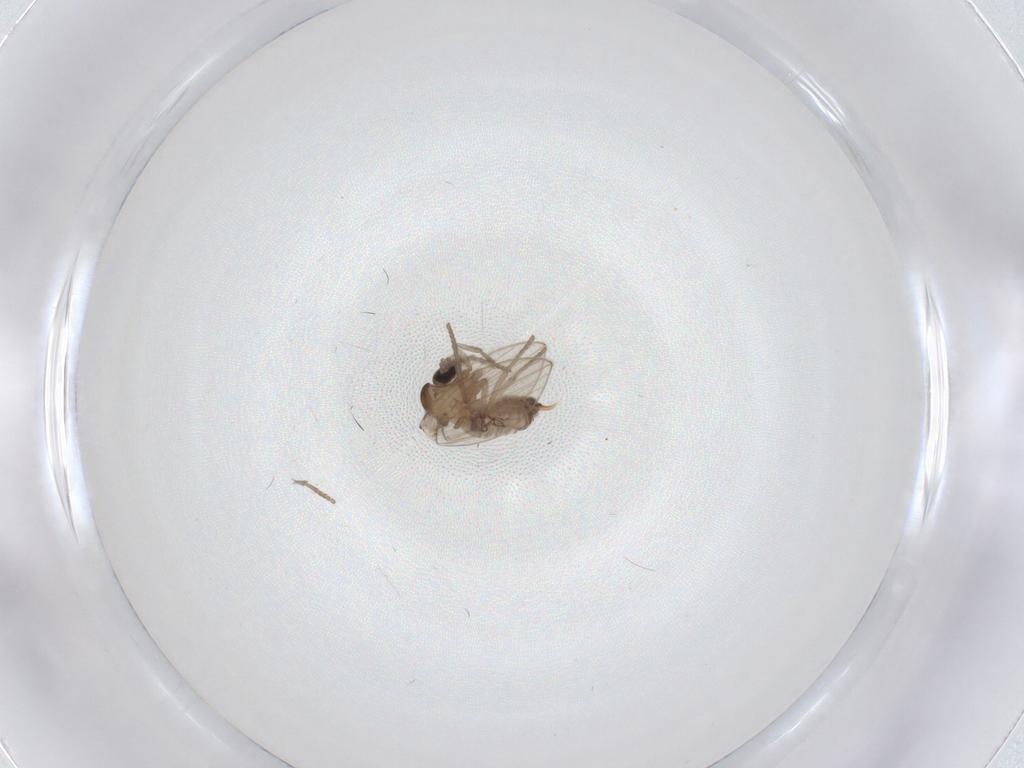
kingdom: Animalia
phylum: Arthropoda
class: Insecta
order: Diptera
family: Psychodidae
